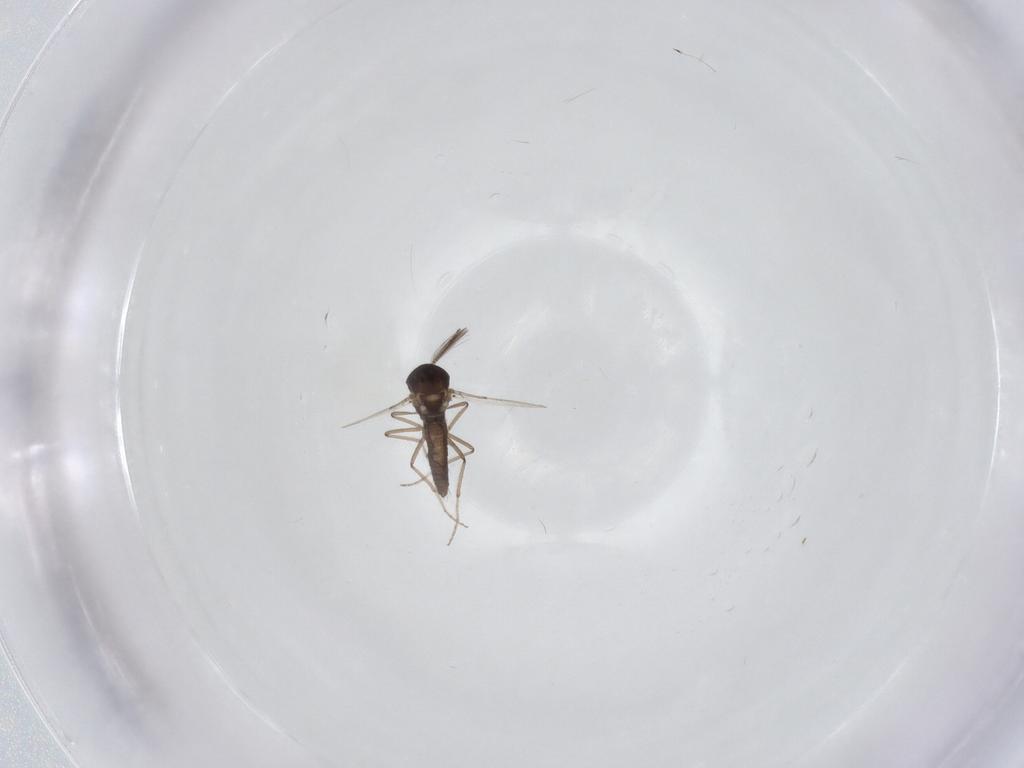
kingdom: Animalia
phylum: Arthropoda
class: Insecta
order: Diptera
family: Ceratopogonidae
